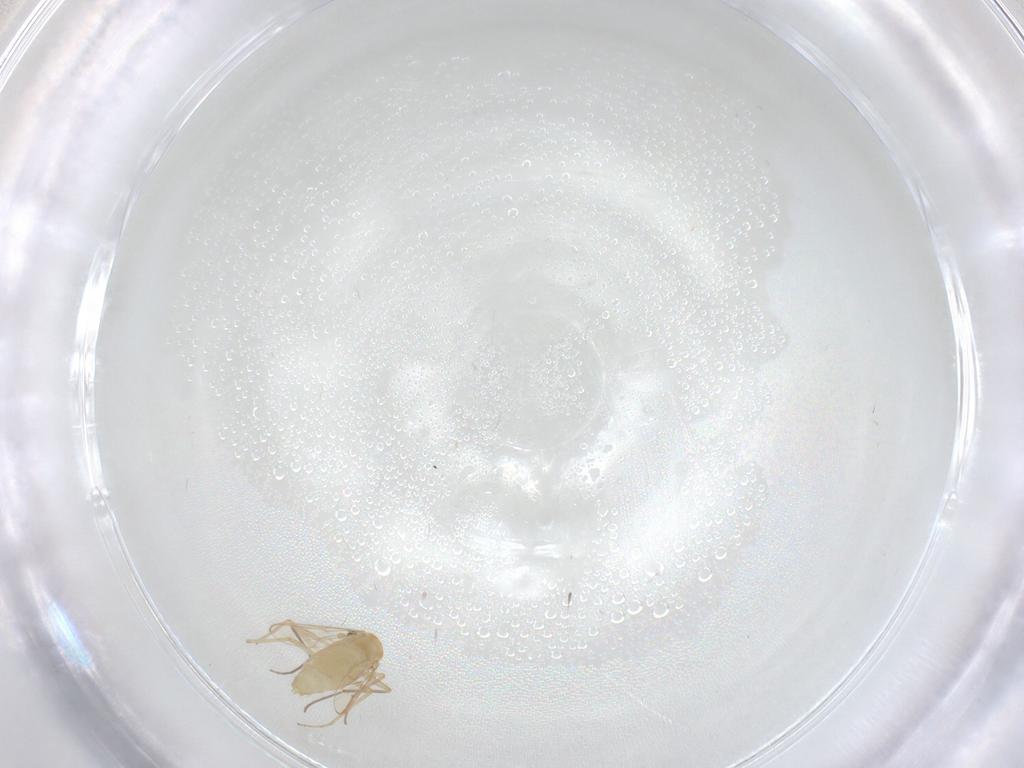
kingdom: Animalia
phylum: Arthropoda
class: Insecta
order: Diptera
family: Chironomidae
